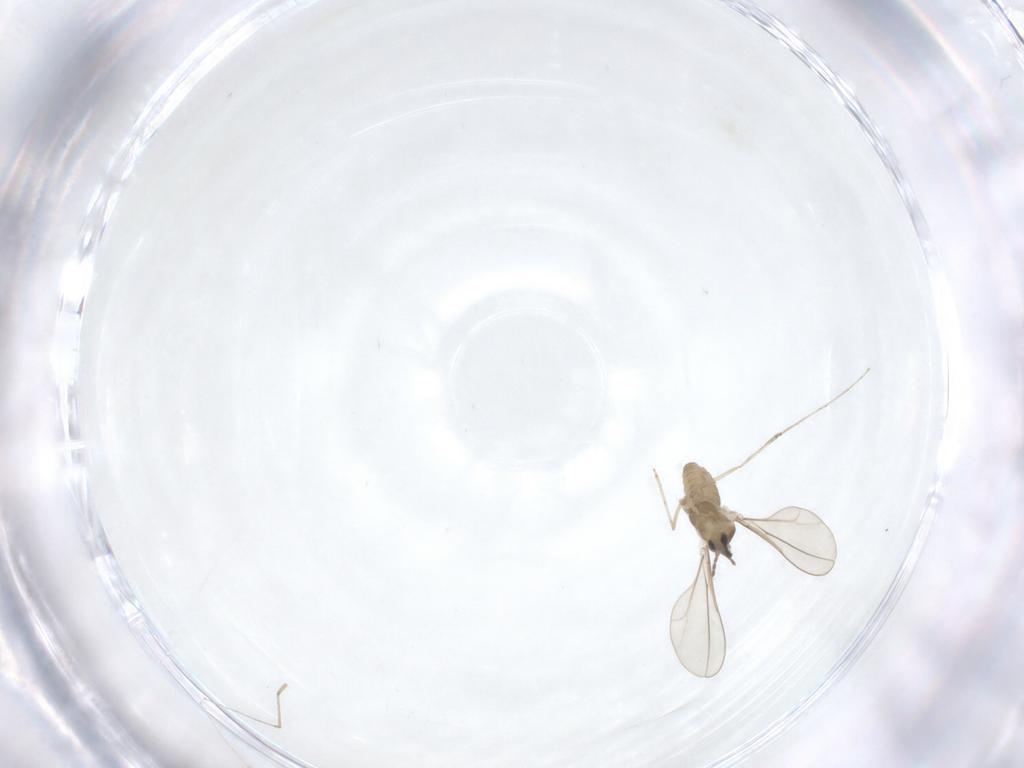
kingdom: Animalia
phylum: Arthropoda
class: Insecta
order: Diptera
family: Cecidomyiidae
